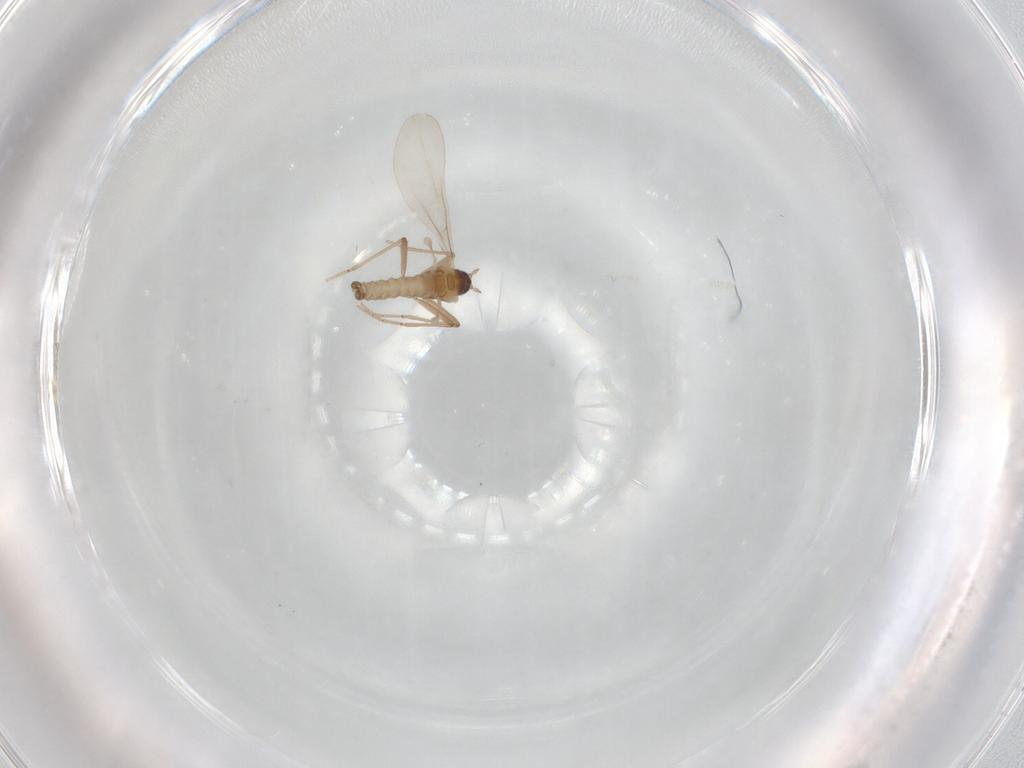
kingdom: Animalia
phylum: Arthropoda
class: Insecta
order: Diptera
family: Cecidomyiidae
